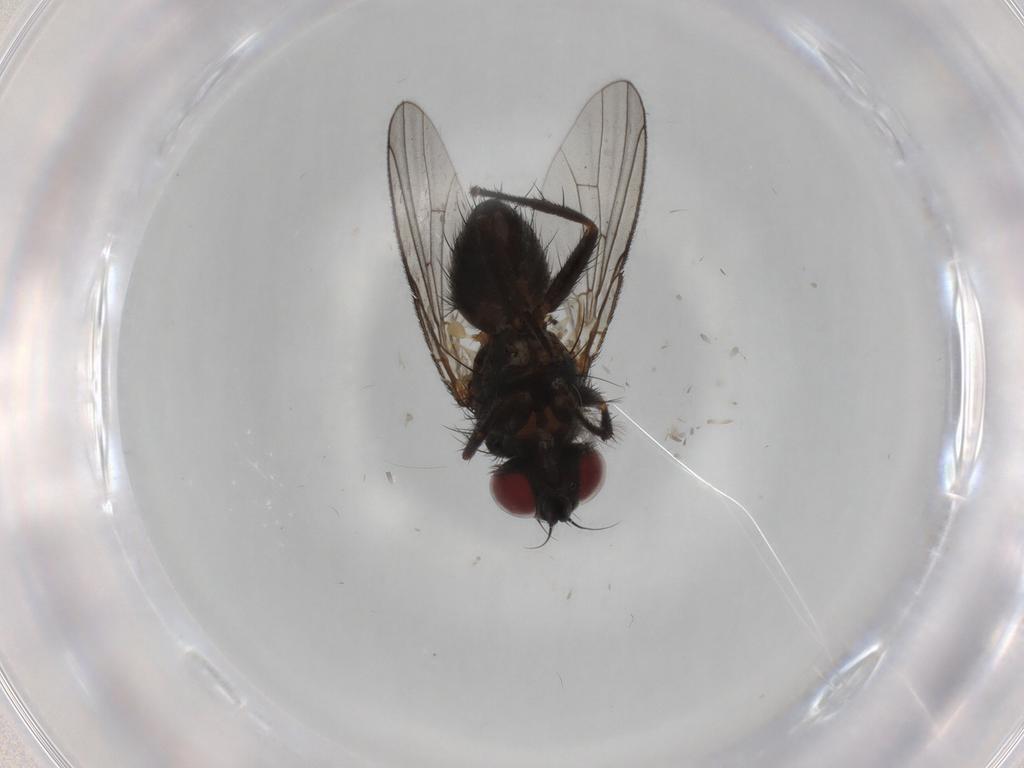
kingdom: Animalia
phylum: Arthropoda
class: Insecta
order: Diptera
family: Muscidae
